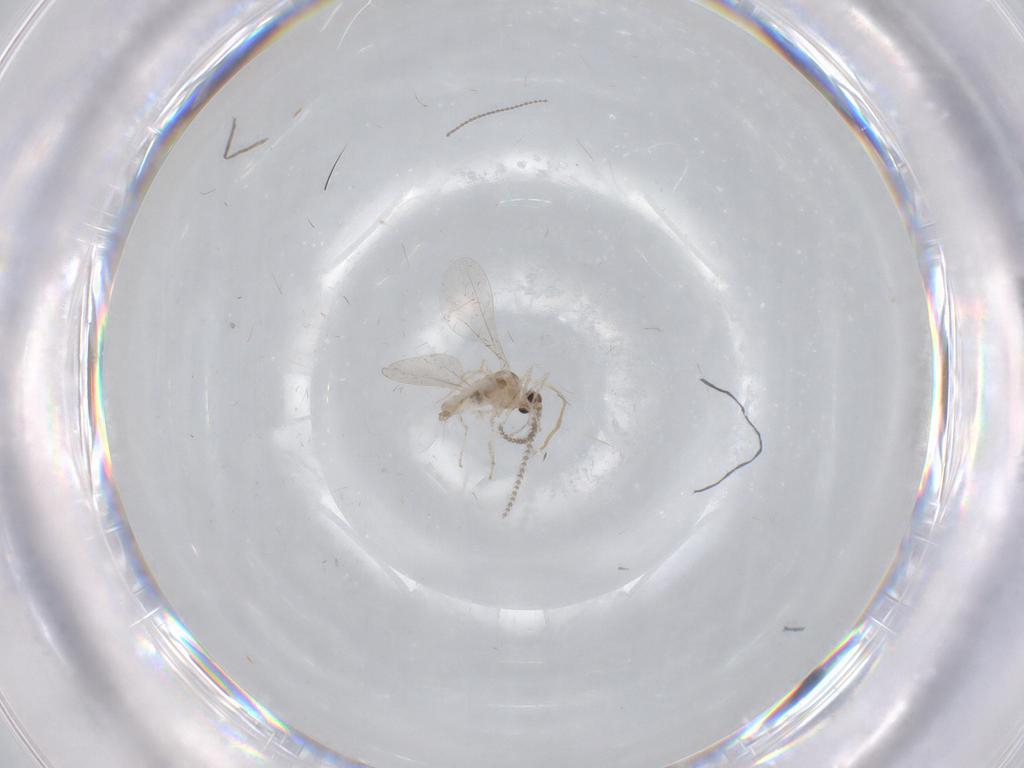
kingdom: Animalia
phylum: Arthropoda
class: Insecta
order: Diptera
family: Cecidomyiidae
